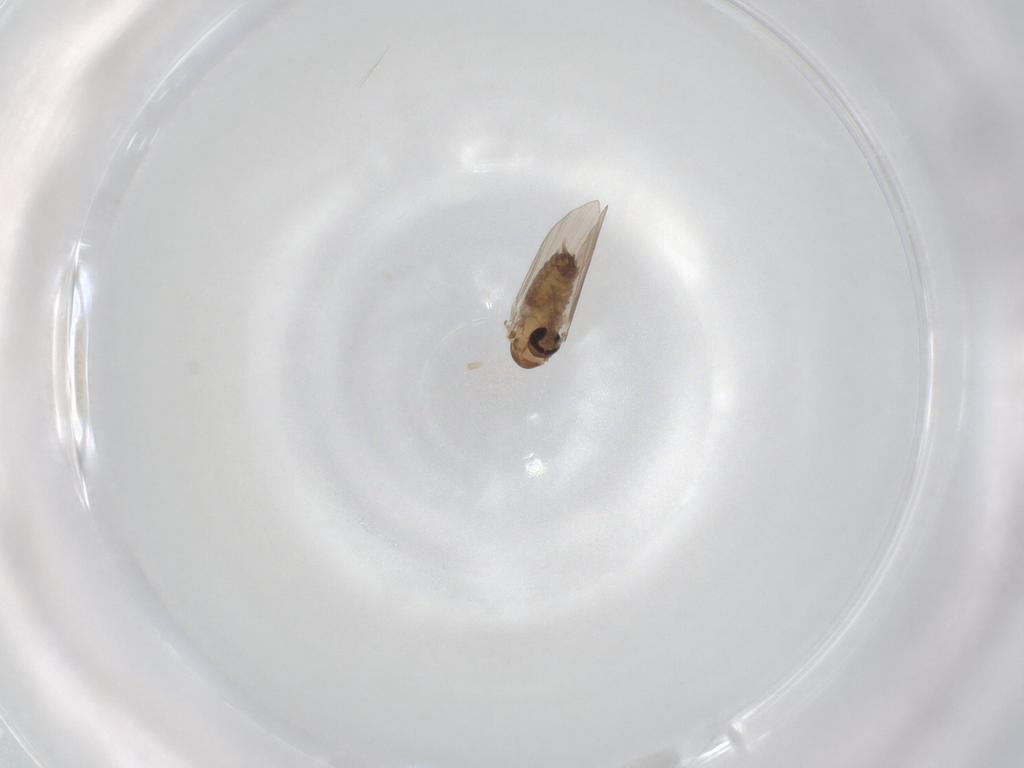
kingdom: Animalia
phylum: Arthropoda
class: Insecta
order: Diptera
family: Psychodidae
